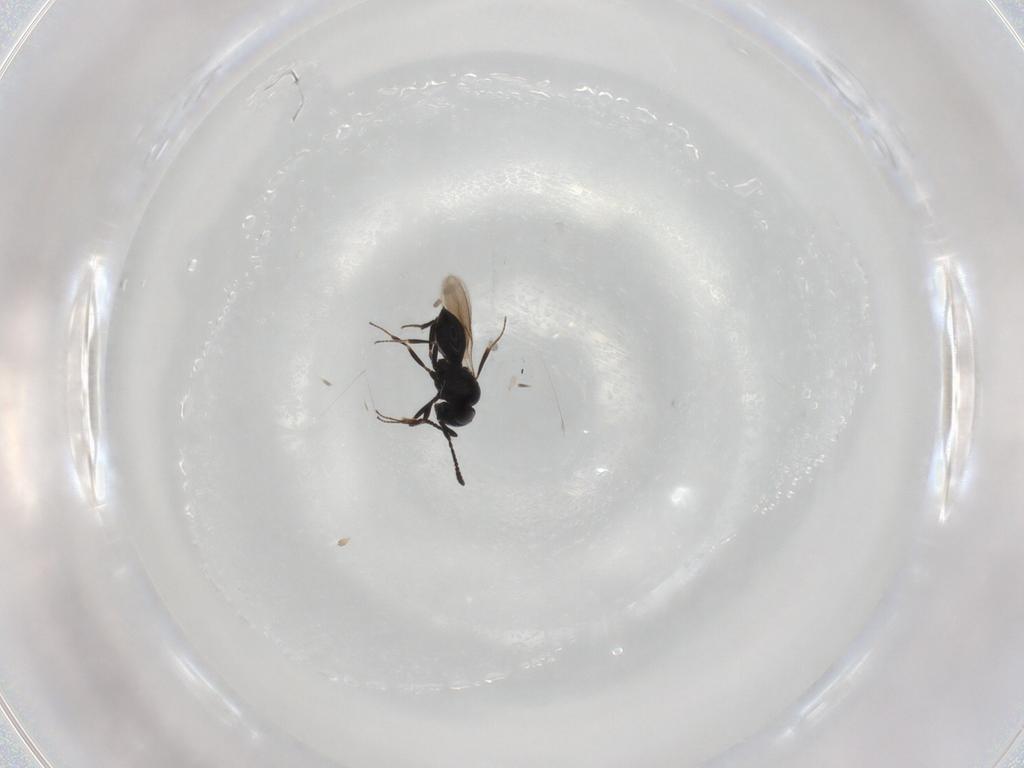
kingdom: Animalia
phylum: Arthropoda
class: Insecta
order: Hymenoptera
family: Scelionidae
